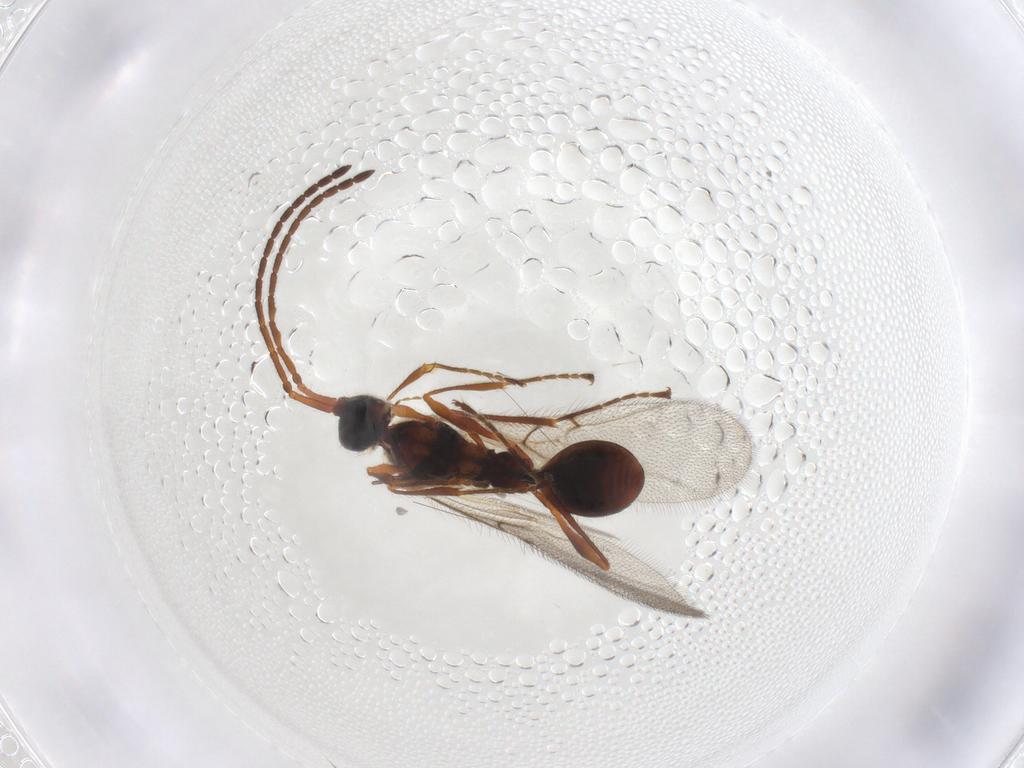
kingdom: Animalia
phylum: Arthropoda
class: Insecta
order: Hymenoptera
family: Diapriidae
